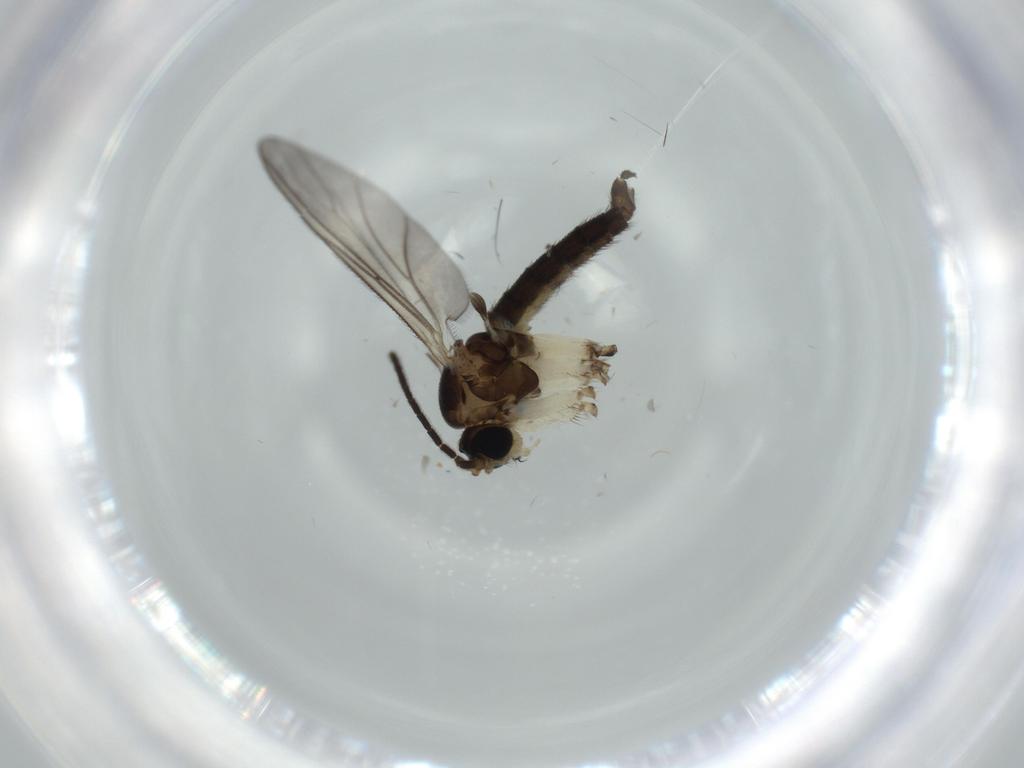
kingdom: Animalia
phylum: Arthropoda
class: Insecta
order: Diptera
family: Sciaridae
